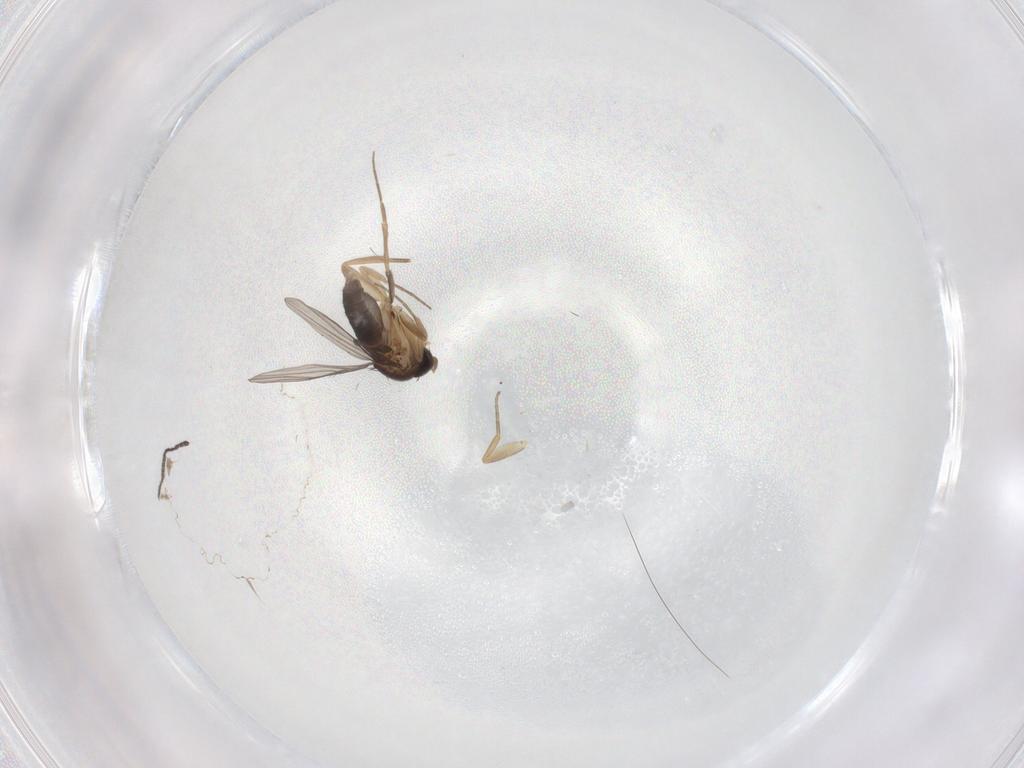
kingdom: Animalia
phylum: Arthropoda
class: Insecta
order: Diptera
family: Sciaridae
